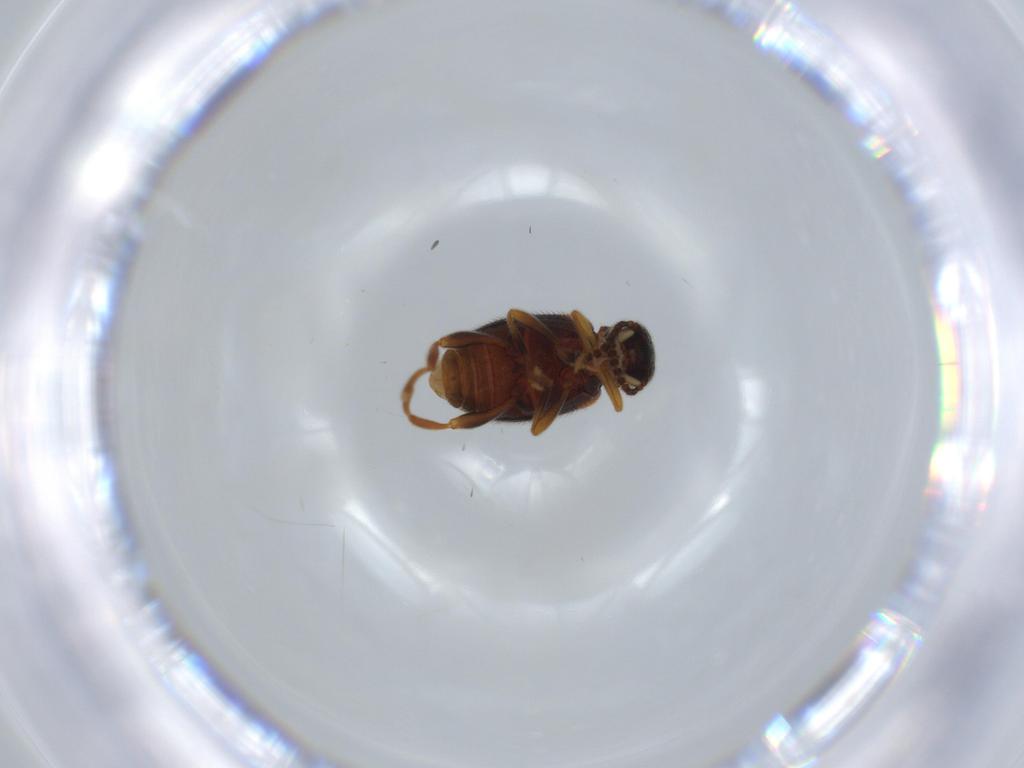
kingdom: Animalia
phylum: Arthropoda
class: Insecta
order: Coleoptera
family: Aderidae
